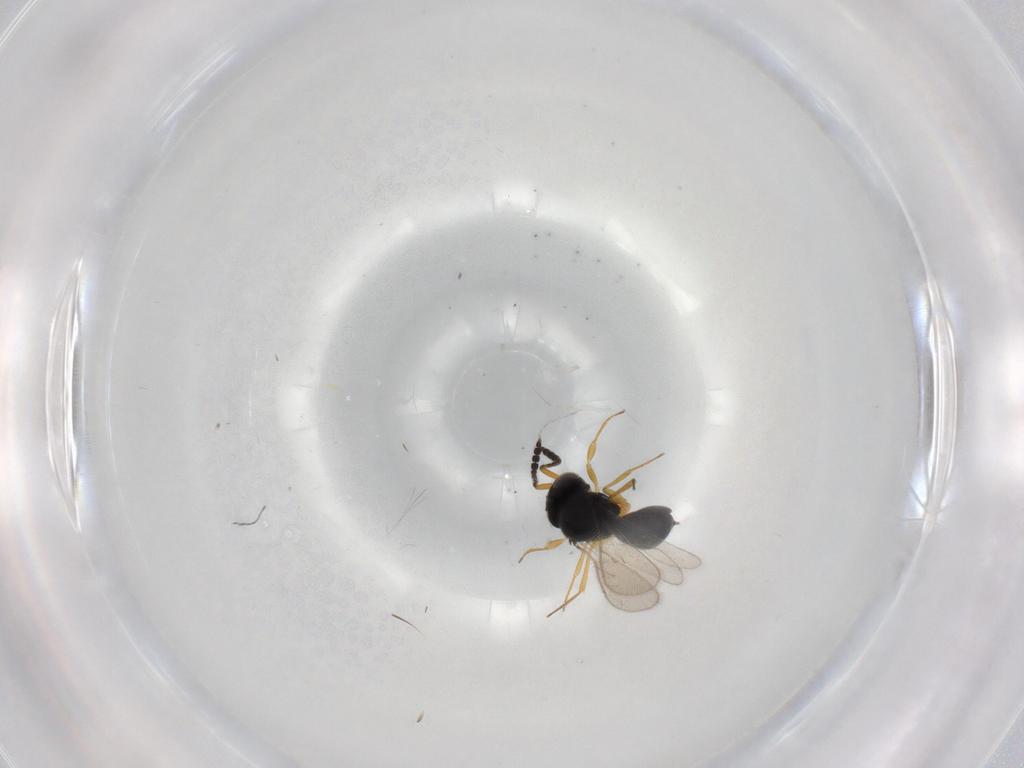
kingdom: Animalia
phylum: Arthropoda
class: Insecta
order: Hymenoptera
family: Scelionidae
